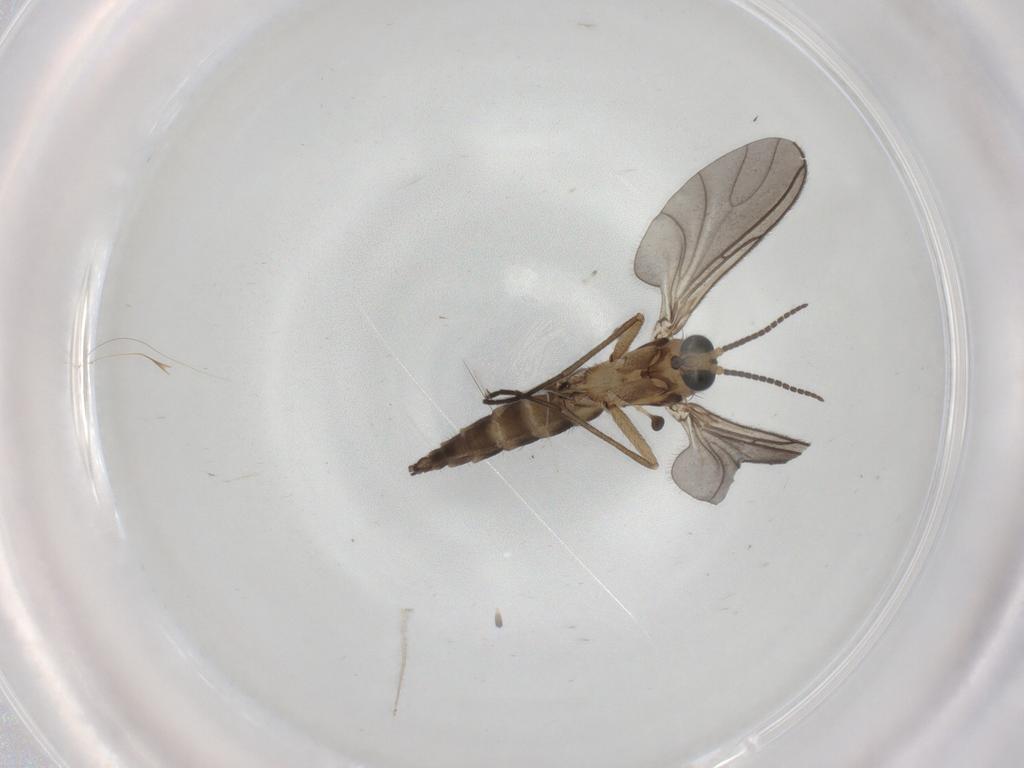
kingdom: Animalia
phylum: Arthropoda
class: Insecta
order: Diptera
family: Sciaridae
